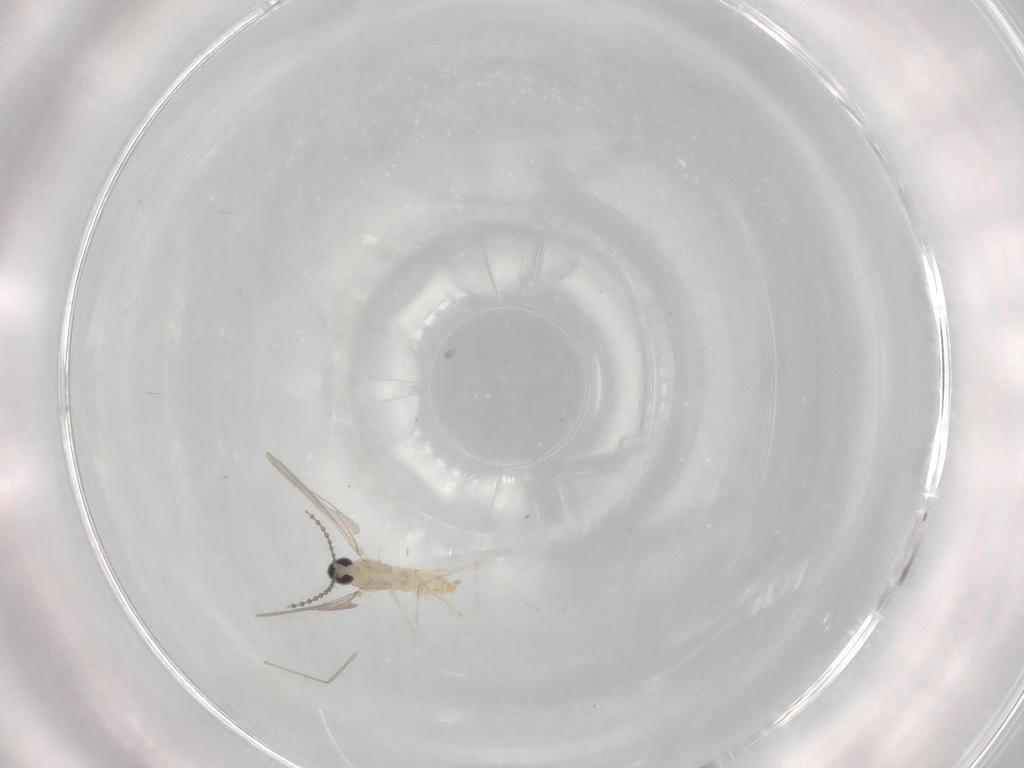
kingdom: Animalia
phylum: Arthropoda
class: Insecta
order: Diptera
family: Cecidomyiidae
